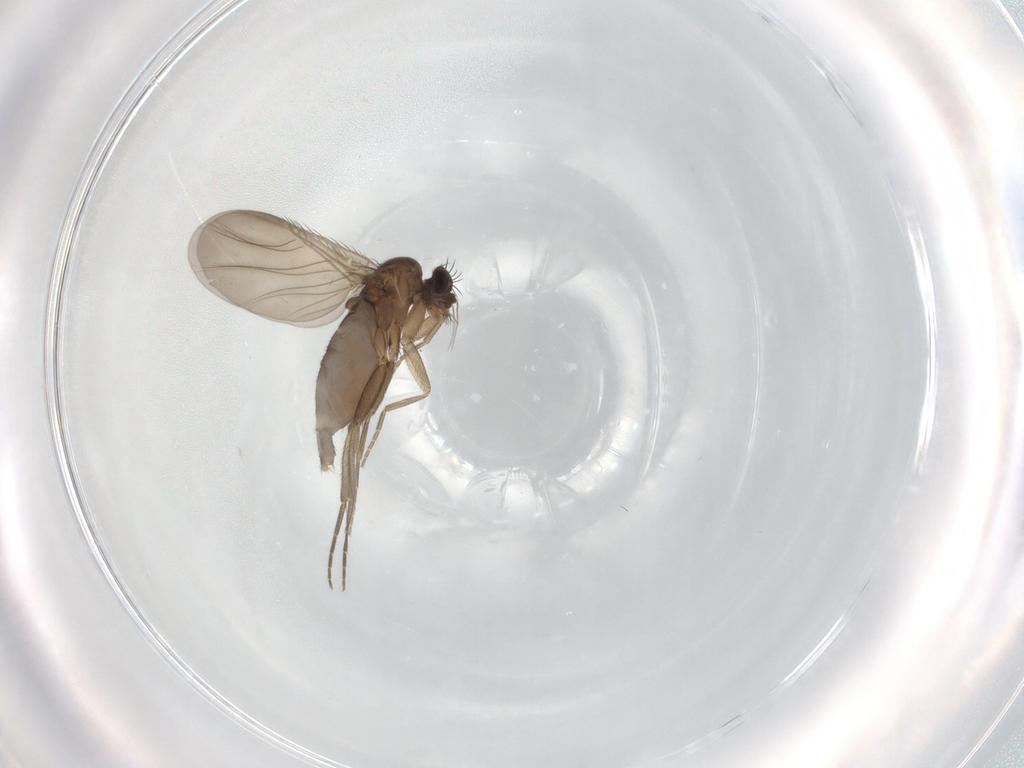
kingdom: Animalia
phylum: Arthropoda
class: Insecta
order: Diptera
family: Phoridae
